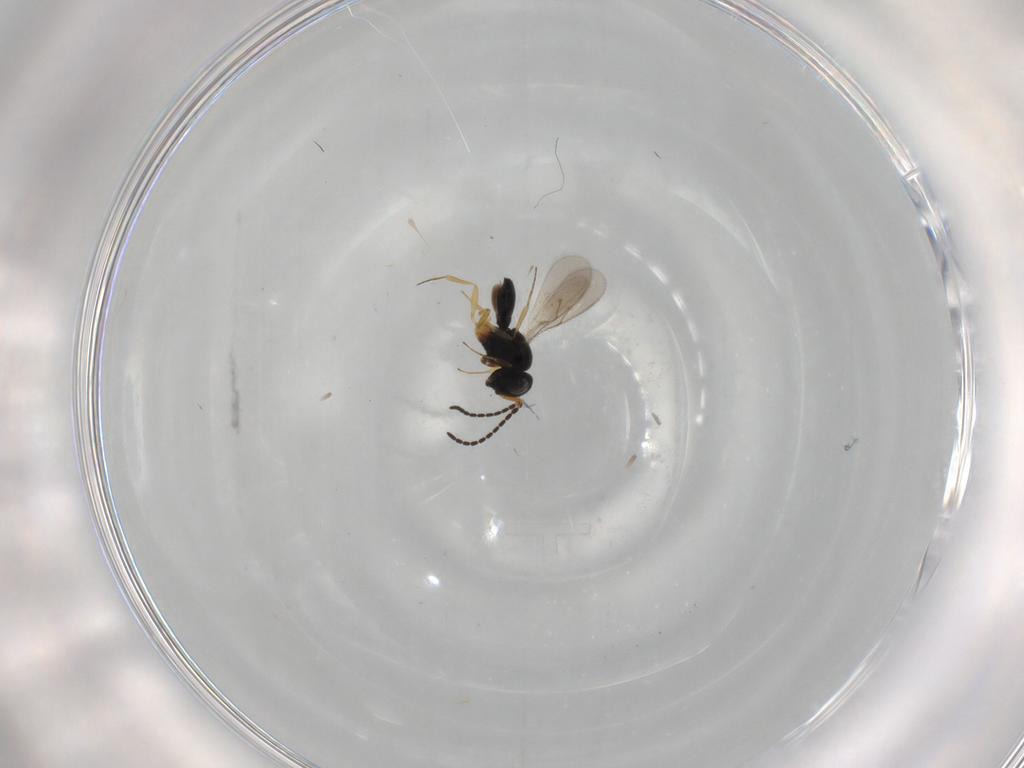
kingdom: Animalia
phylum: Arthropoda
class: Insecta
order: Hymenoptera
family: Scelionidae
